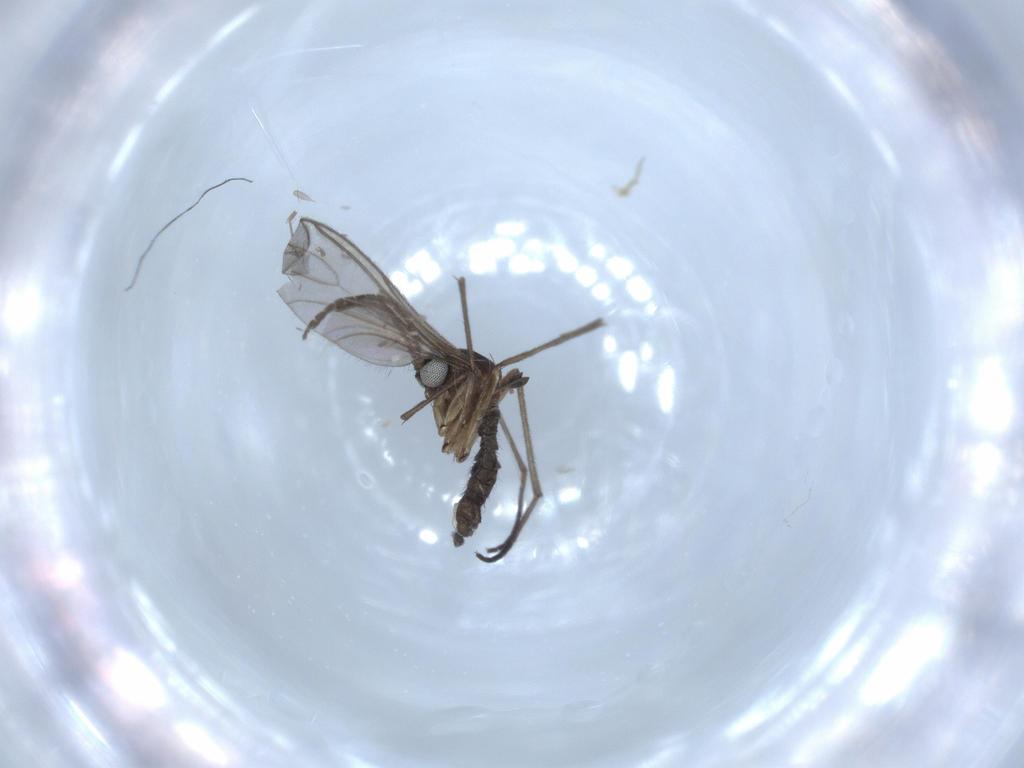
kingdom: Animalia
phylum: Arthropoda
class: Insecta
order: Diptera
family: Sciaridae
